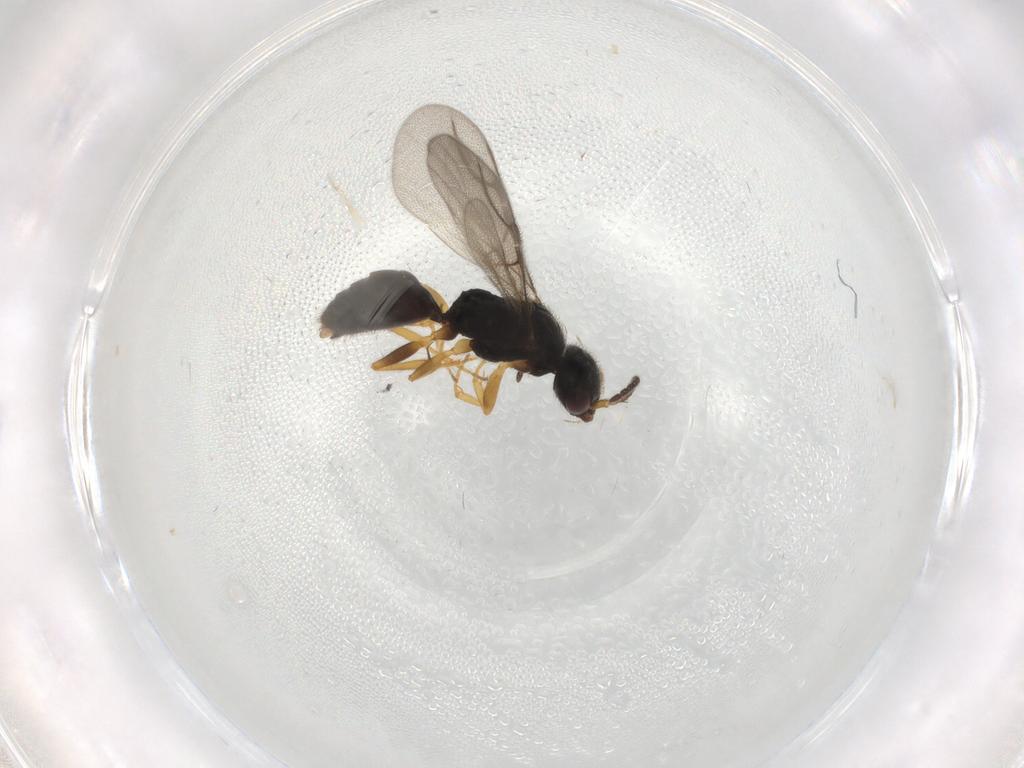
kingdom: Animalia
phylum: Arthropoda
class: Insecta
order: Hymenoptera
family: Bethylidae
